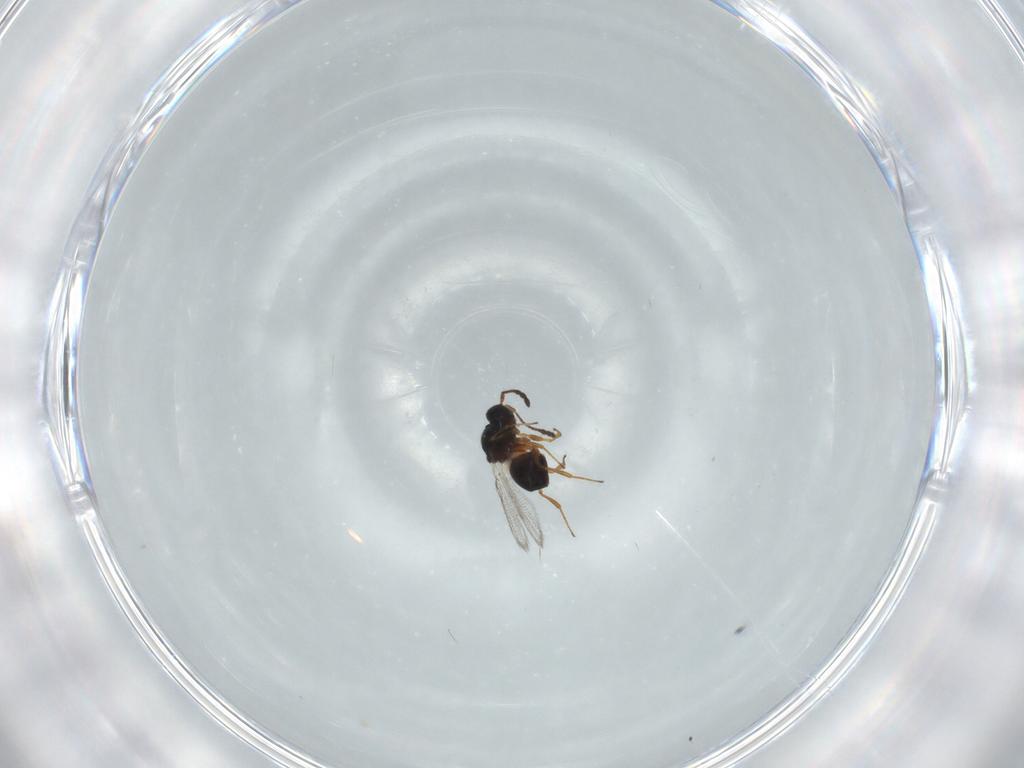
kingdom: Animalia
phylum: Arthropoda
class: Insecta
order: Hymenoptera
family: Figitidae
